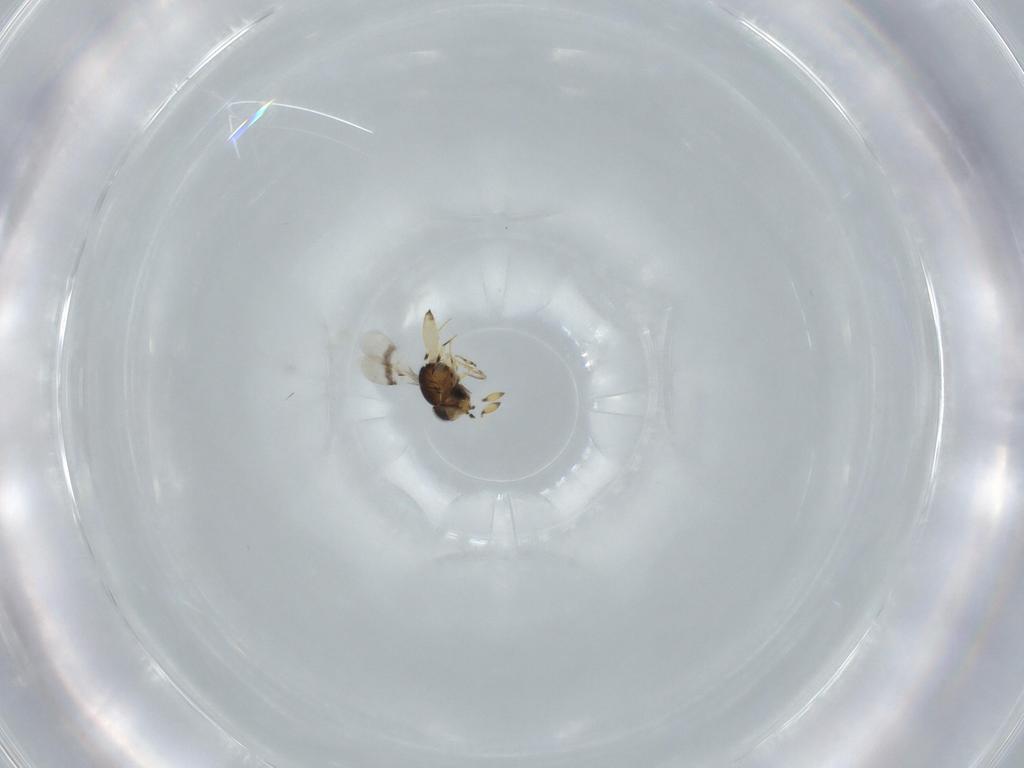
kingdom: Animalia
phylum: Arthropoda
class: Insecta
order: Hymenoptera
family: Scelionidae
